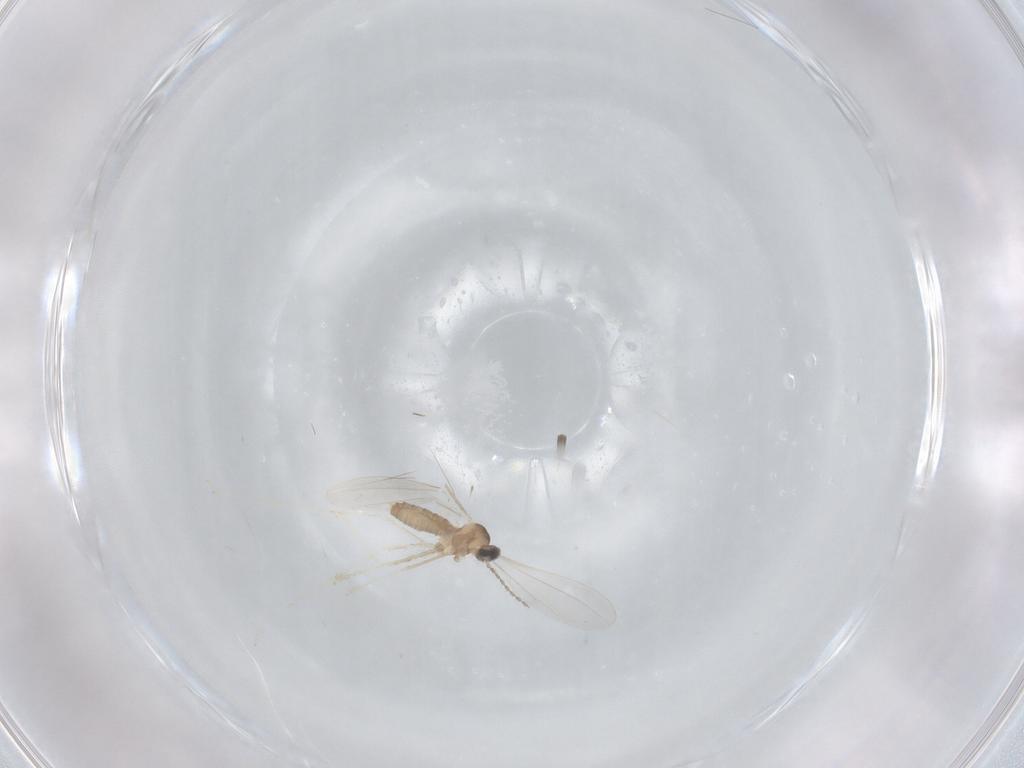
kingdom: Animalia
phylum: Arthropoda
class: Insecta
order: Diptera
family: Cecidomyiidae
